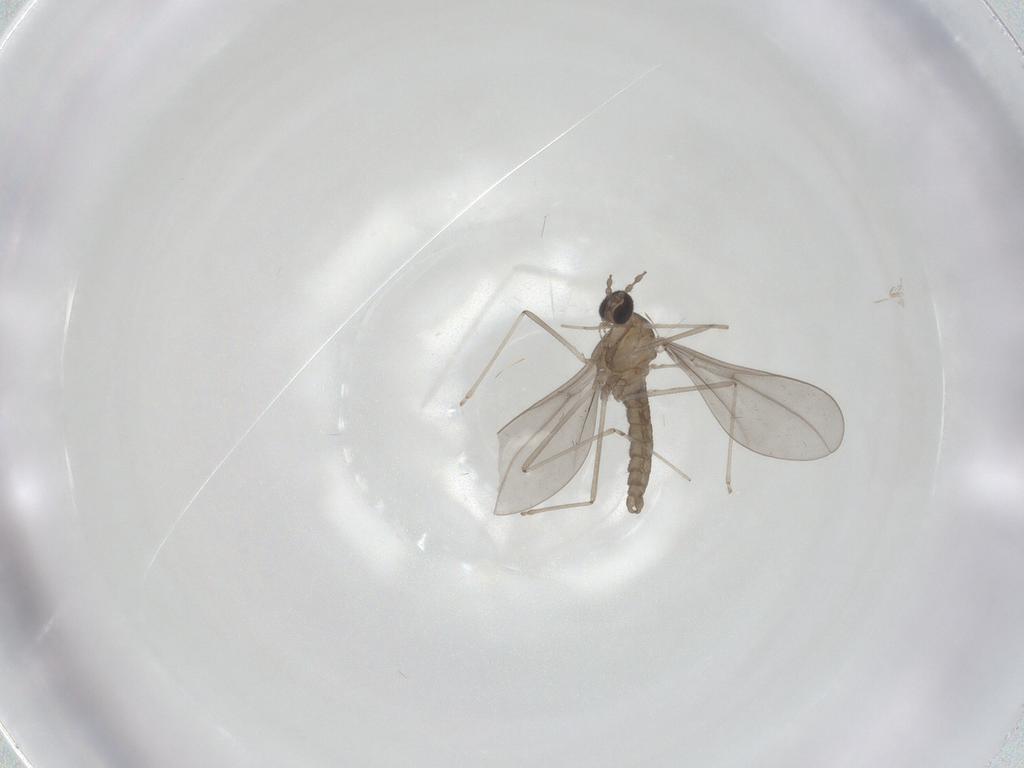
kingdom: Animalia
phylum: Arthropoda
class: Insecta
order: Diptera
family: Cecidomyiidae
